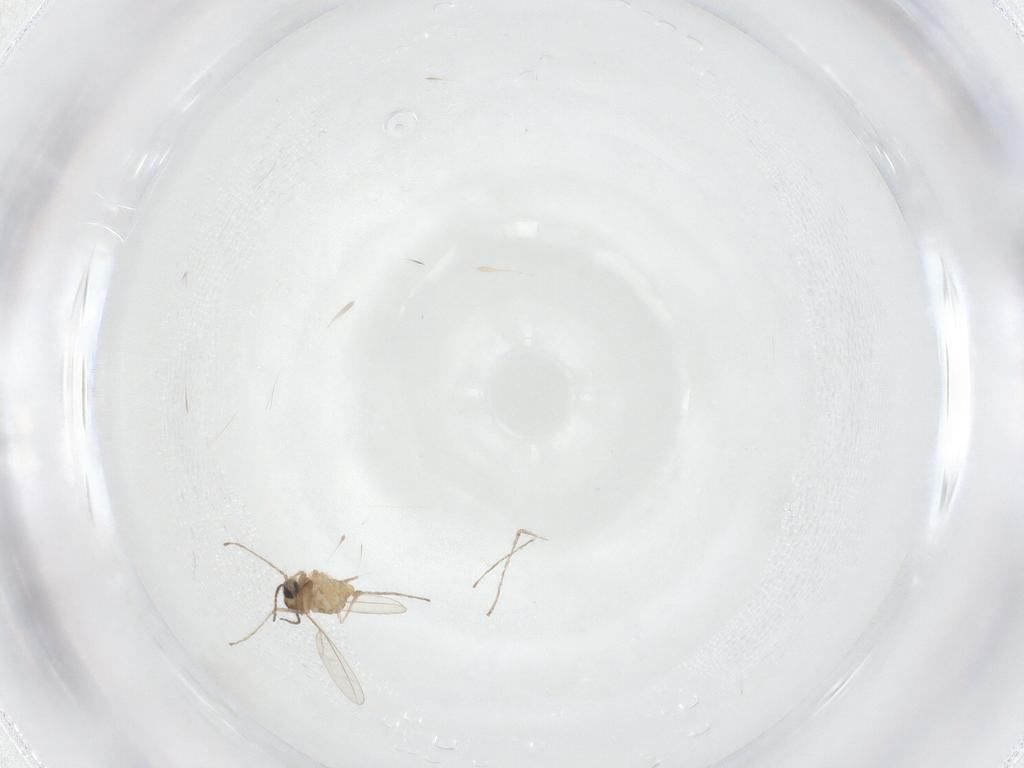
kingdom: Animalia
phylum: Arthropoda
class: Insecta
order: Diptera
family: Cecidomyiidae
